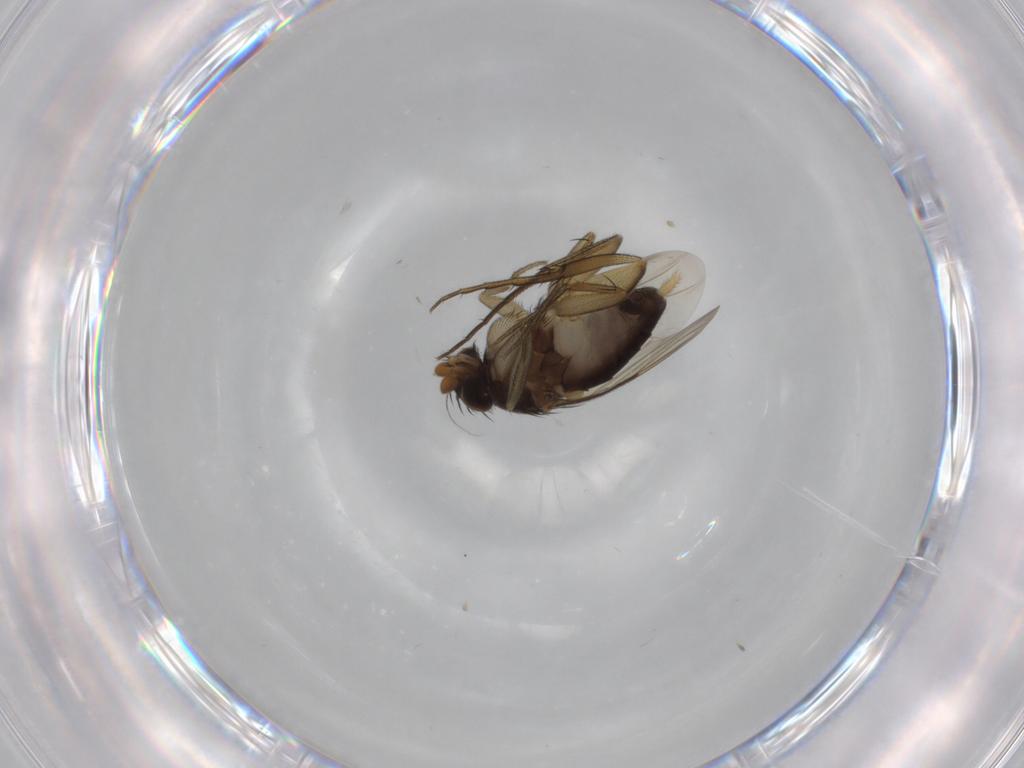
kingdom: Animalia
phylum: Arthropoda
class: Insecta
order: Diptera
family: Phoridae
